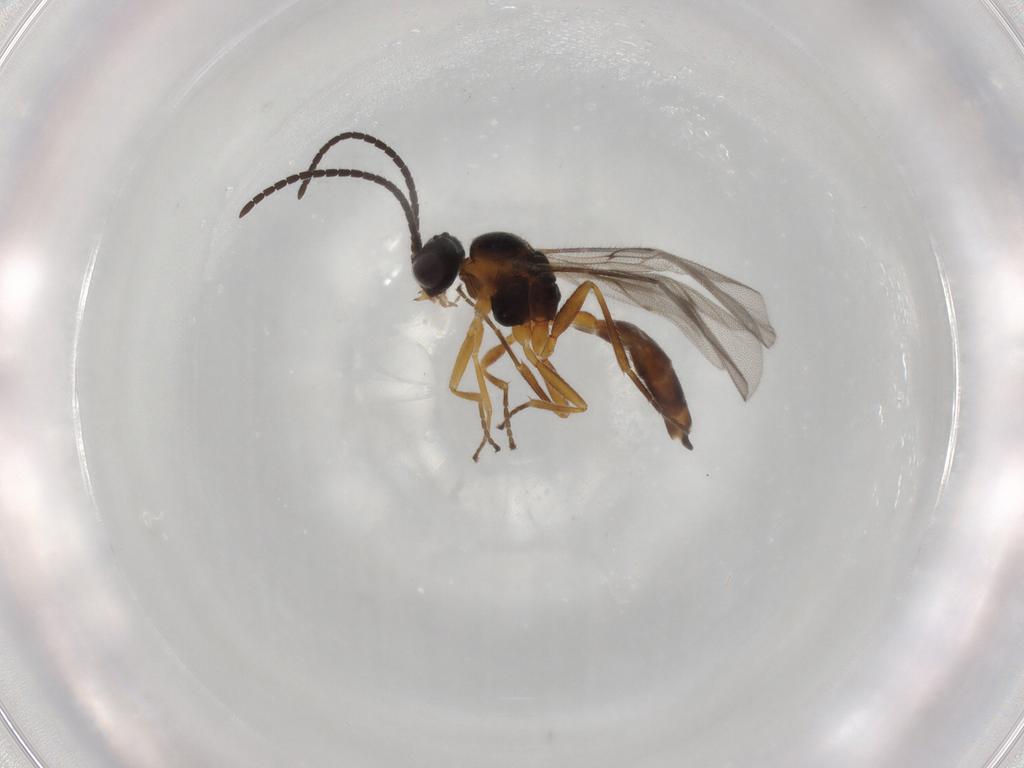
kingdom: Animalia
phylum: Arthropoda
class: Insecta
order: Hymenoptera
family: Braconidae
